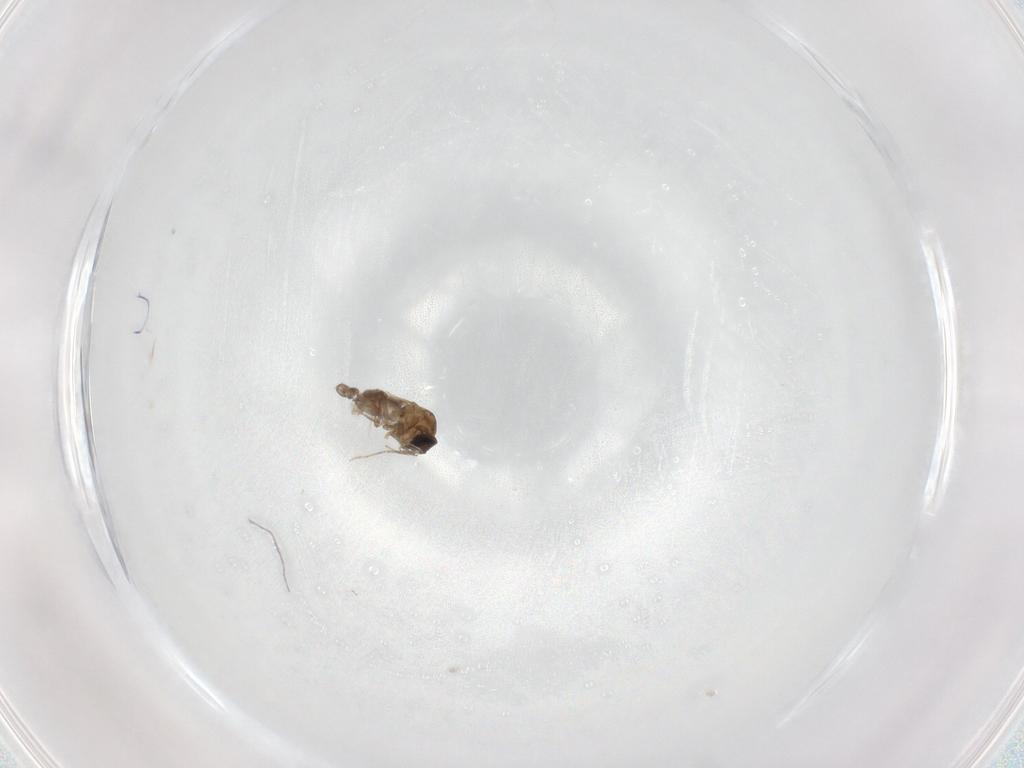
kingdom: Animalia
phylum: Arthropoda
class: Insecta
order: Diptera
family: Ceratopogonidae
